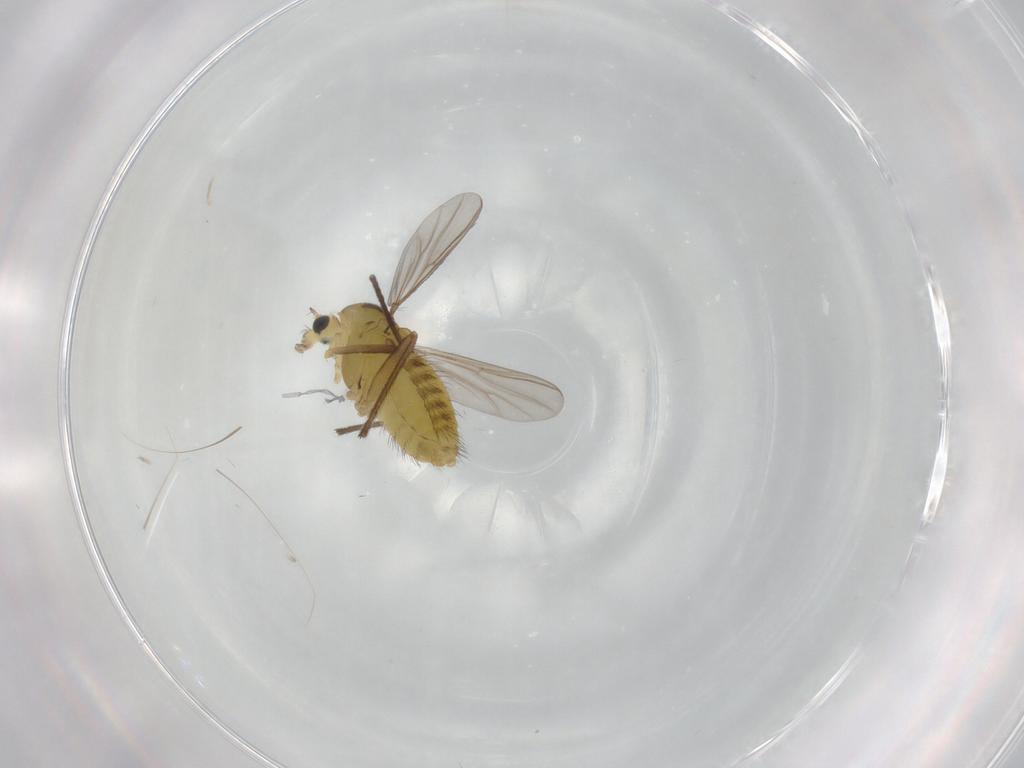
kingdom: Animalia
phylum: Arthropoda
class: Insecta
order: Diptera
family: Chironomidae
